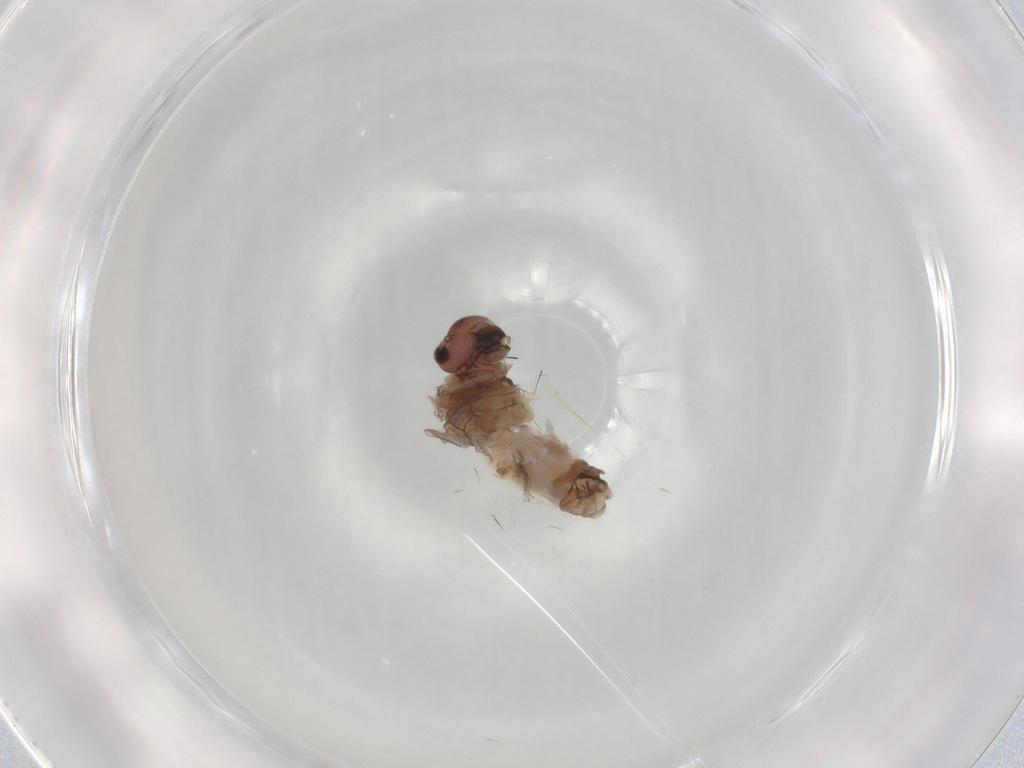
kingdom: Animalia
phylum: Arthropoda
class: Insecta
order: Psocodea
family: Peripsocidae
